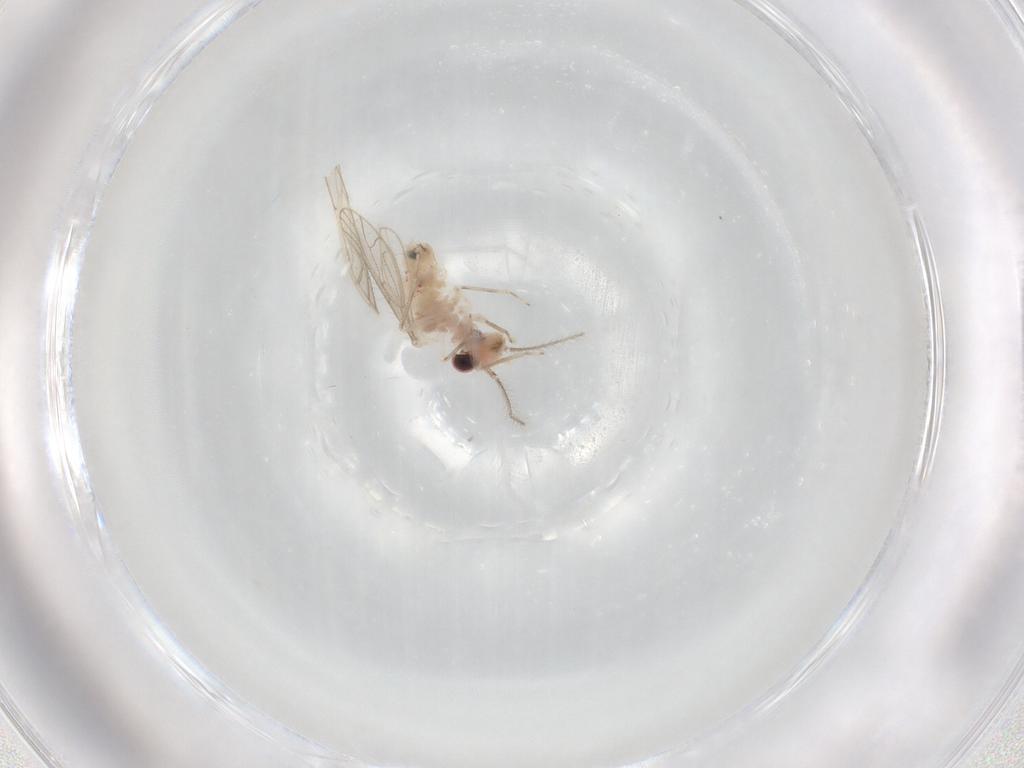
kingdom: Animalia
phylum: Arthropoda
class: Insecta
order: Psocodea
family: Caeciliusidae
